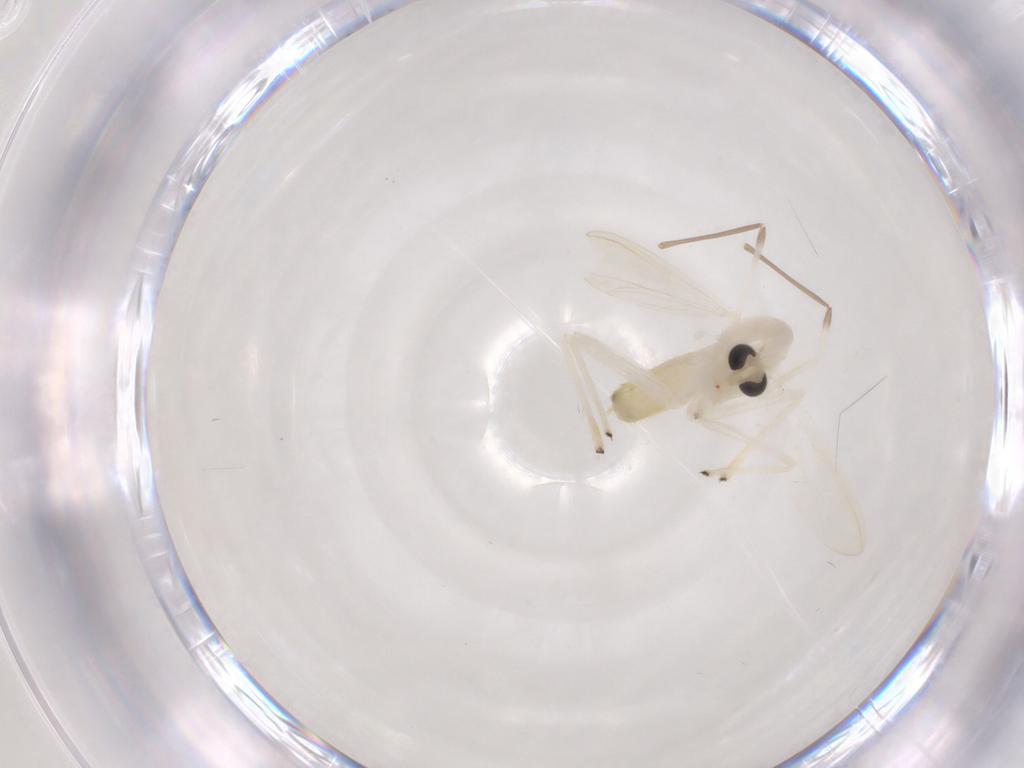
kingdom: Animalia
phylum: Arthropoda
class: Insecta
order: Diptera
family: Chironomidae
